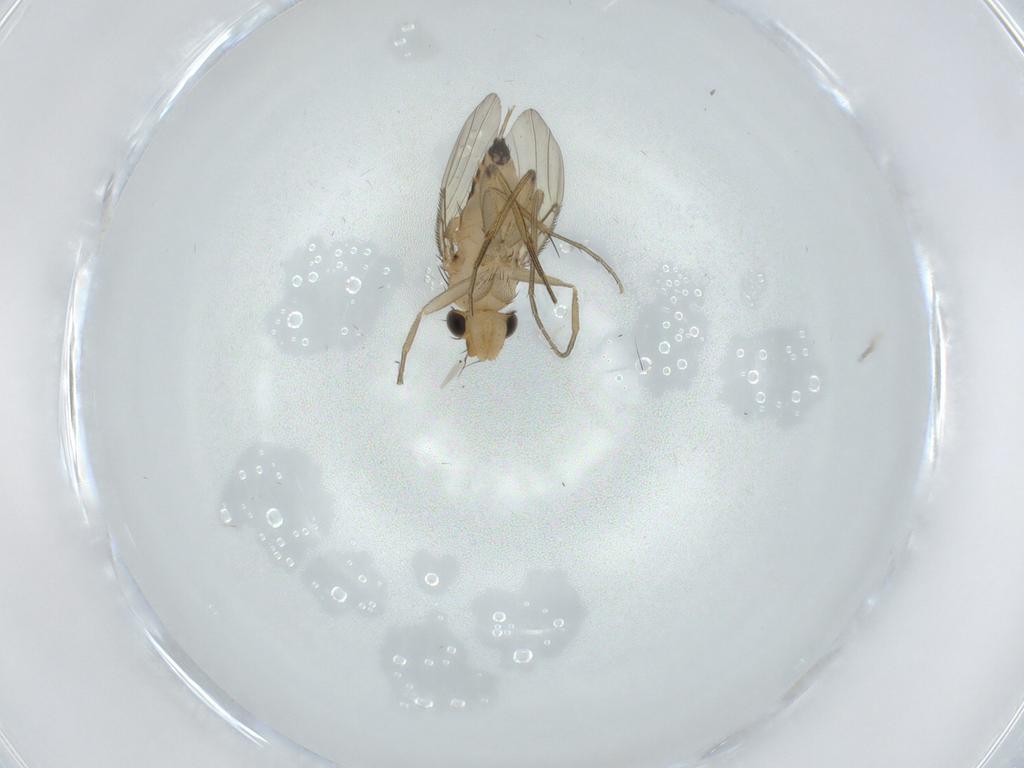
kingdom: Animalia
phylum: Arthropoda
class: Insecta
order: Diptera
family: Phoridae
